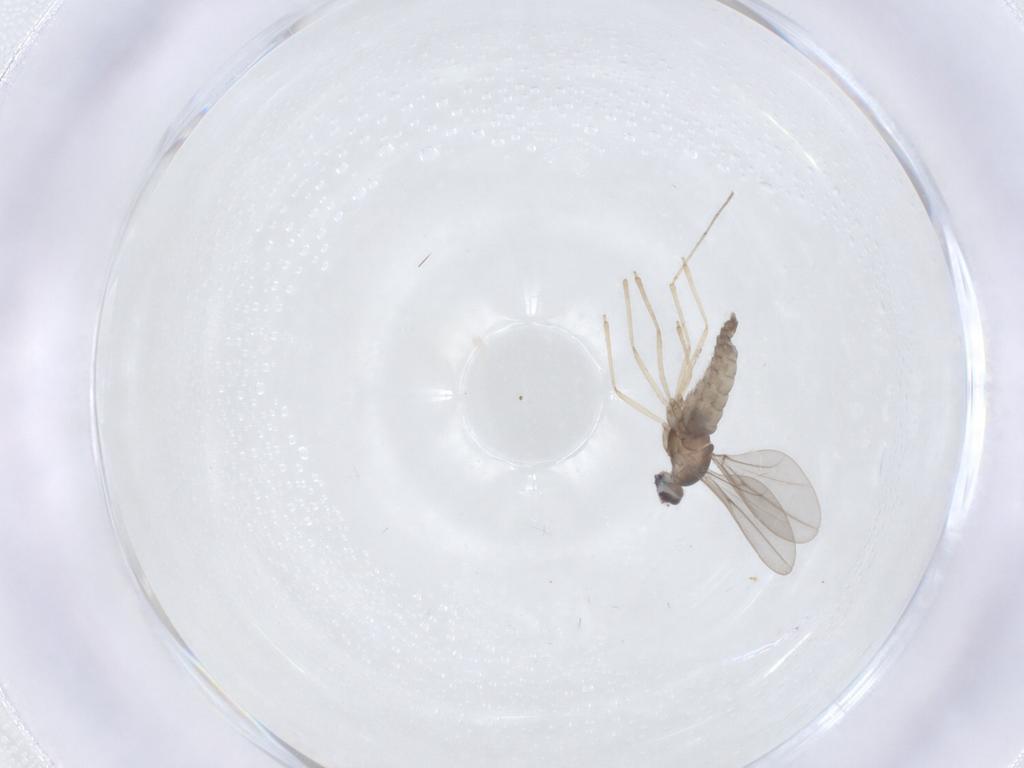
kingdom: Animalia
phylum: Arthropoda
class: Insecta
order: Diptera
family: Cecidomyiidae
